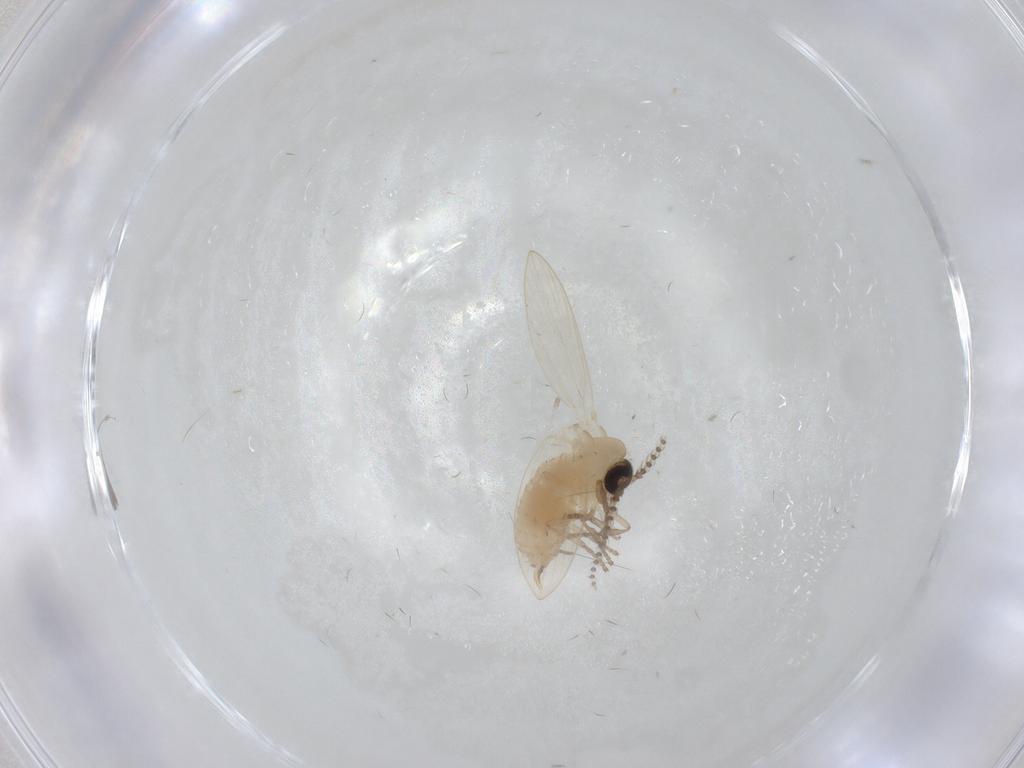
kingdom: Animalia
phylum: Arthropoda
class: Insecta
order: Diptera
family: Psychodidae
